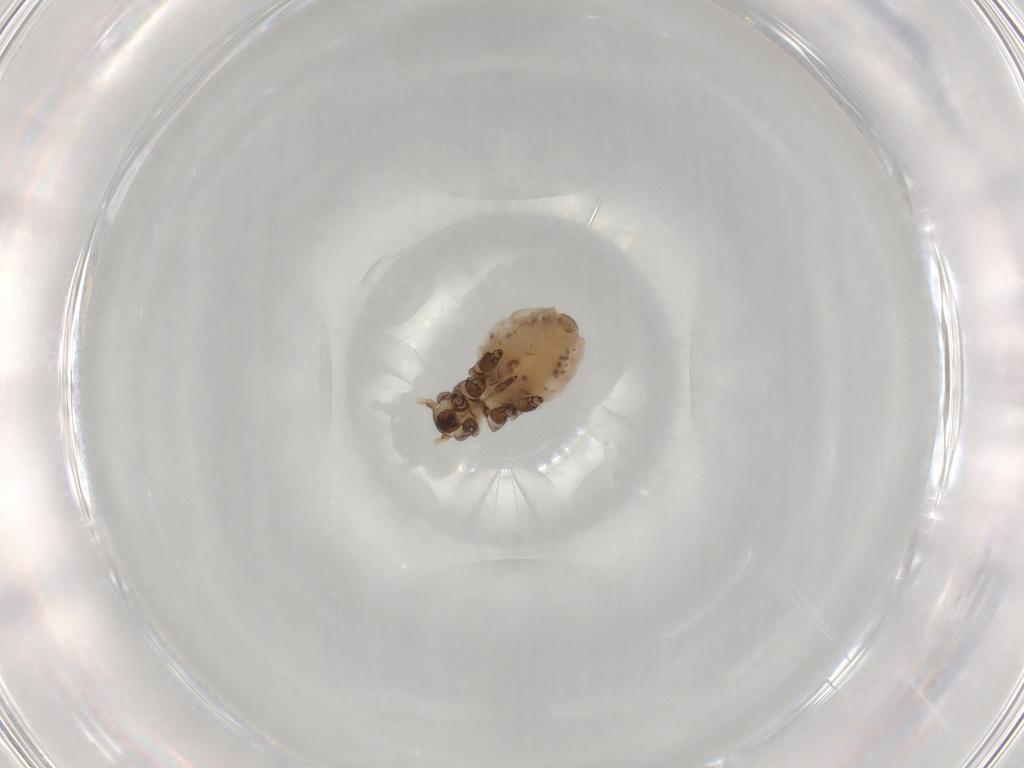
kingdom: Animalia
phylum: Arthropoda
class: Insecta
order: Hemiptera
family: Aphididae
